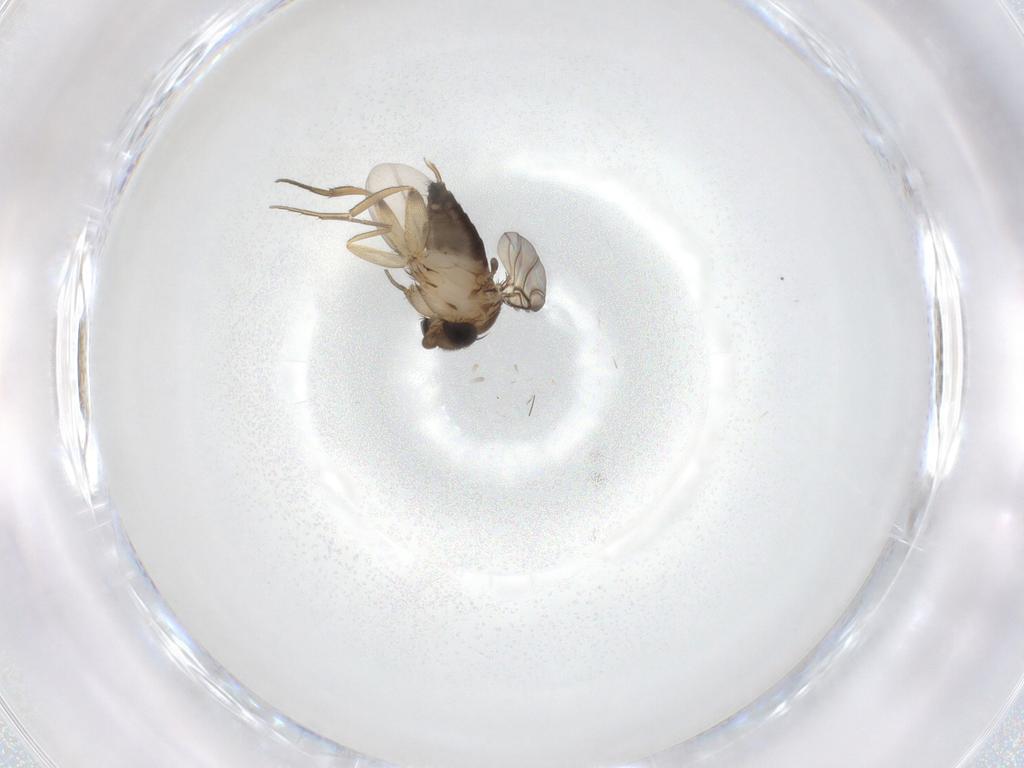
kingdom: Animalia
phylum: Arthropoda
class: Insecta
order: Diptera
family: Phoridae
